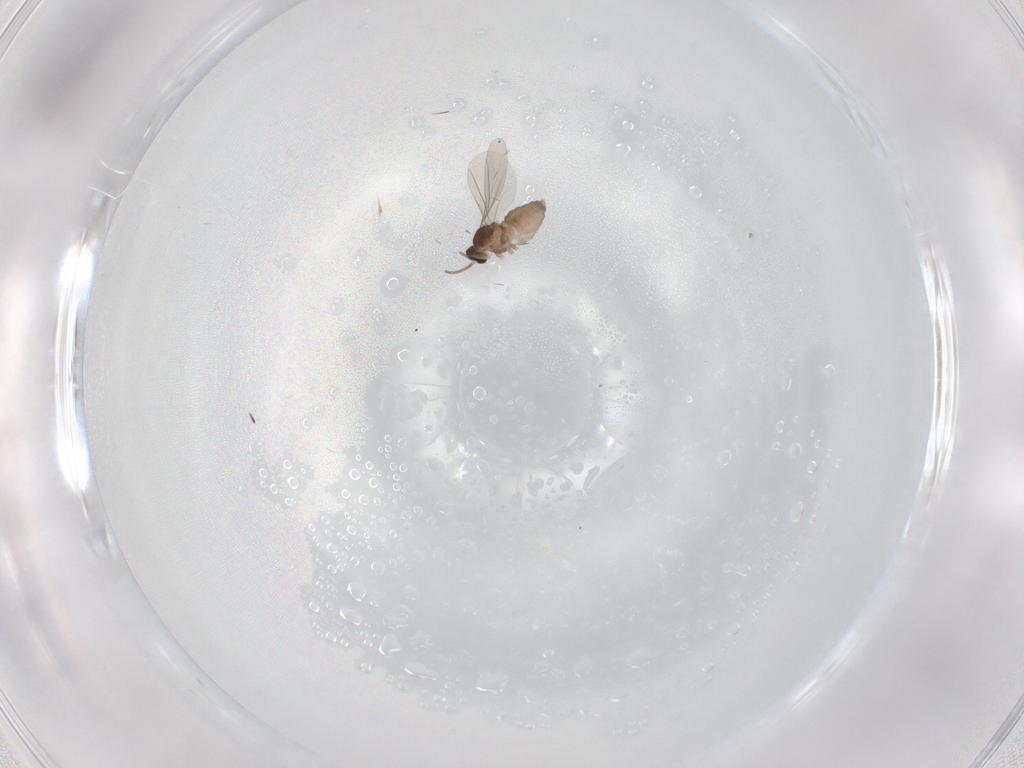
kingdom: Animalia
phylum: Arthropoda
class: Insecta
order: Diptera
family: Cecidomyiidae
